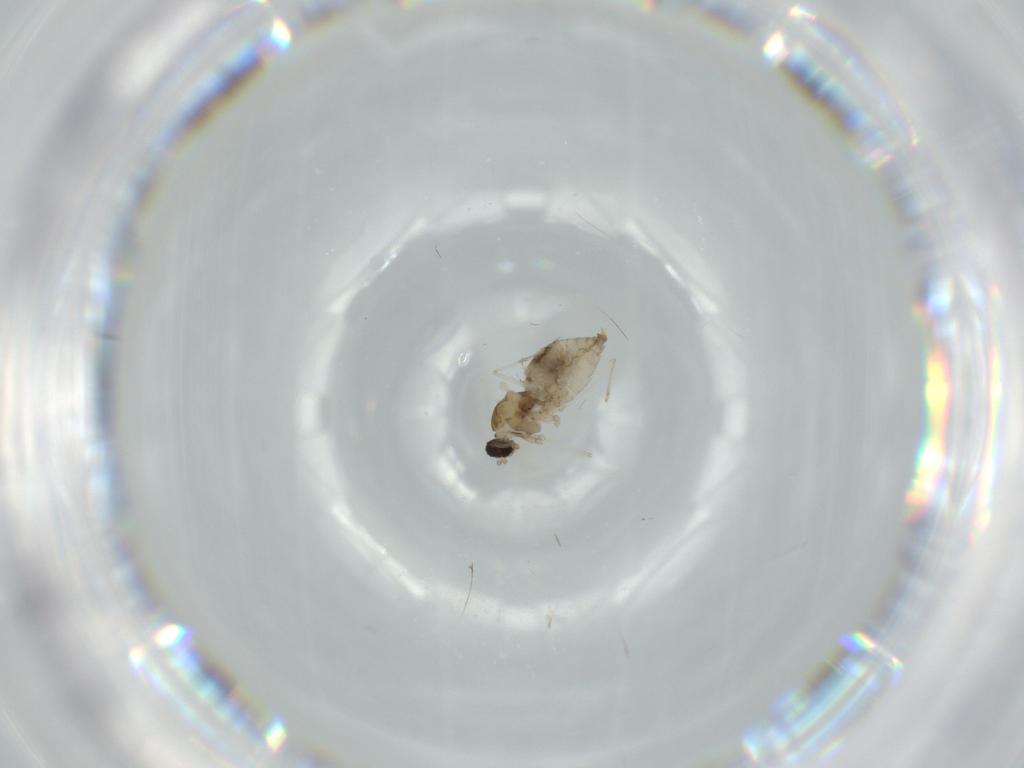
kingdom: Animalia
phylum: Arthropoda
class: Insecta
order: Diptera
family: Cecidomyiidae
